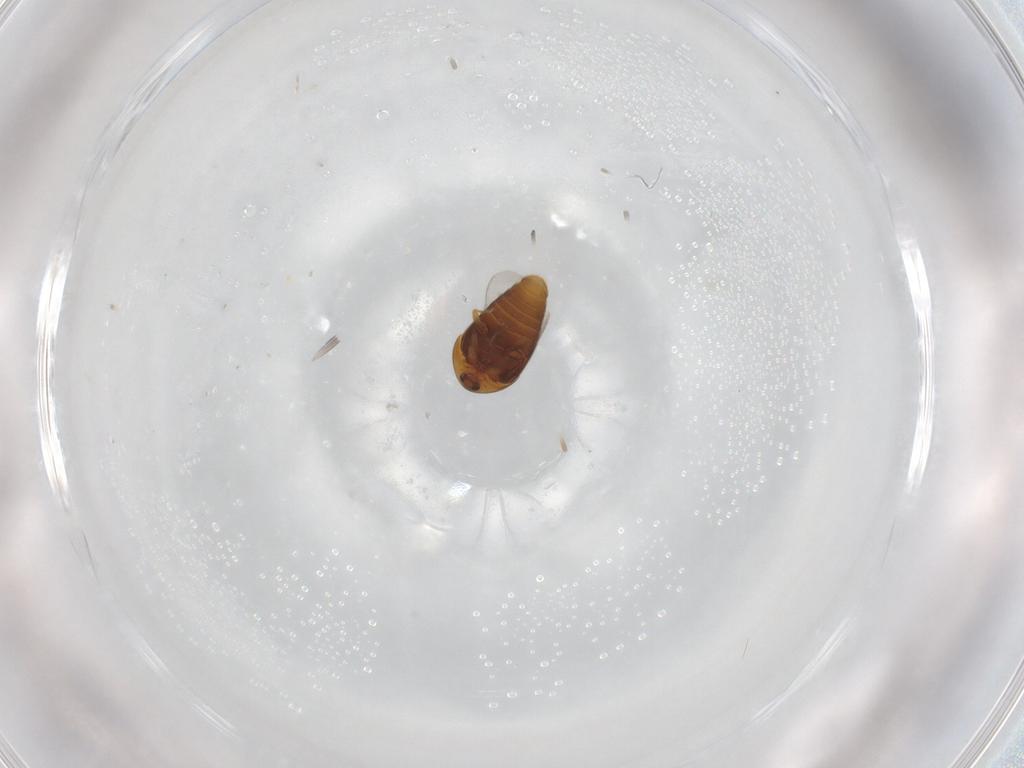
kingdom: Animalia
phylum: Arthropoda
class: Insecta
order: Coleoptera
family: Corylophidae
